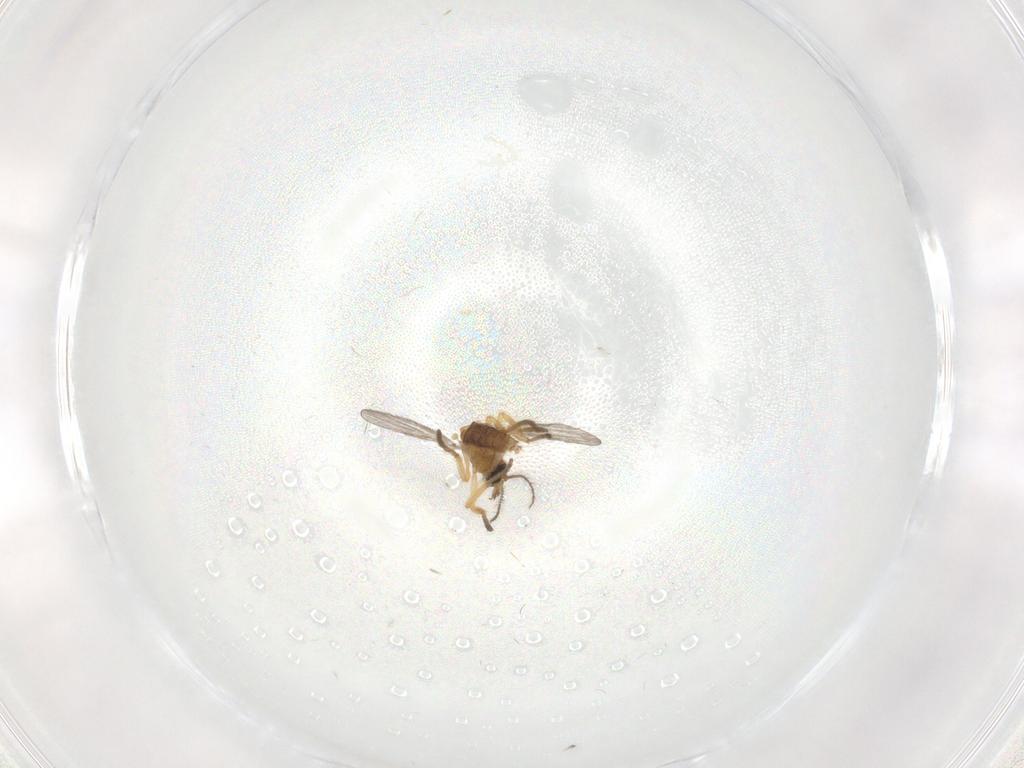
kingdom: Animalia
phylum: Arthropoda
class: Insecta
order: Diptera
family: Ceratopogonidae
